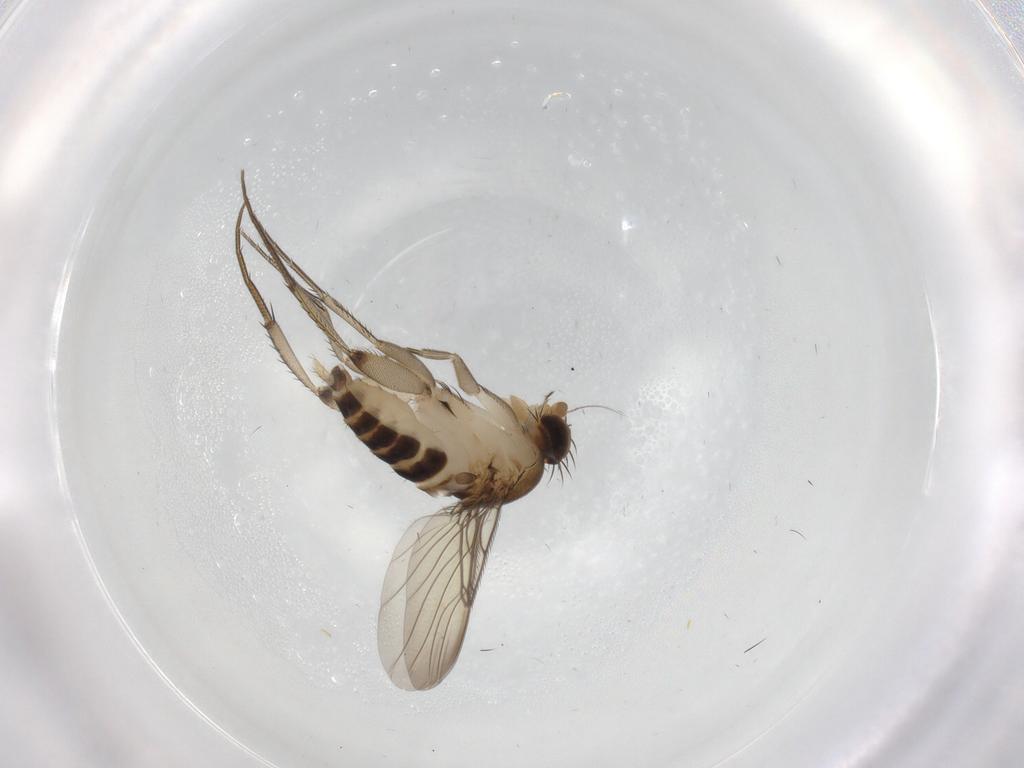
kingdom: Animalia
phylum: Arthropoda
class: Insecta
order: Diptera
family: Phoridae
